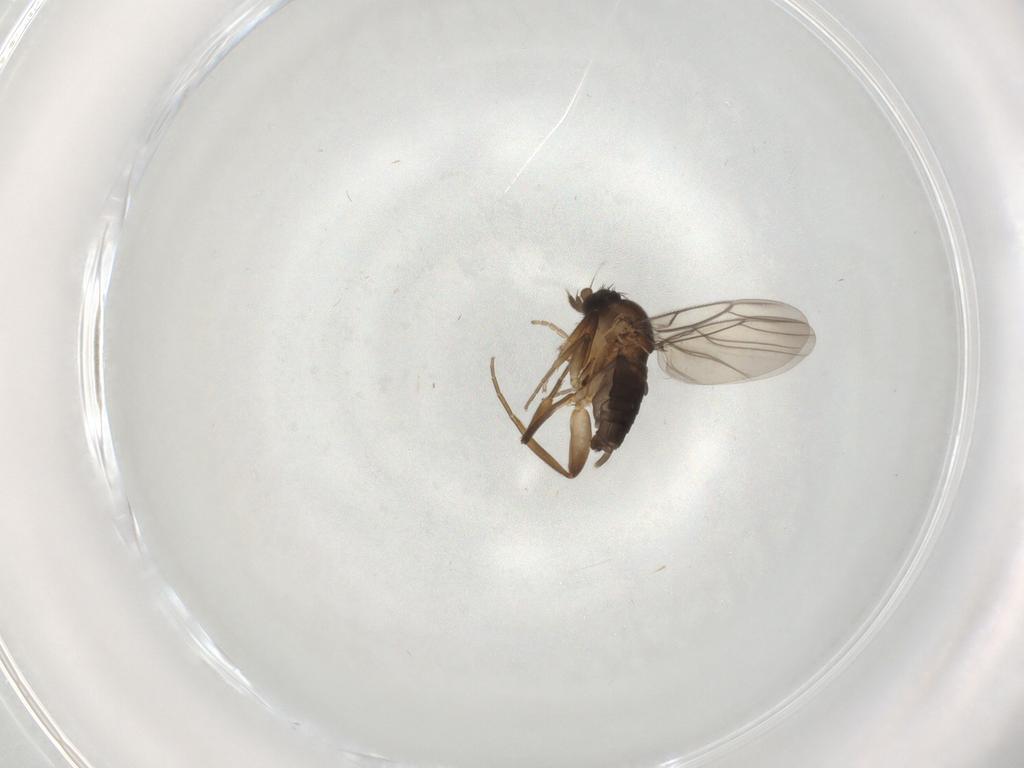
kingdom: Animalia
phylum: Arthropoda
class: Insecta
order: Diptera
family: Phoridae
